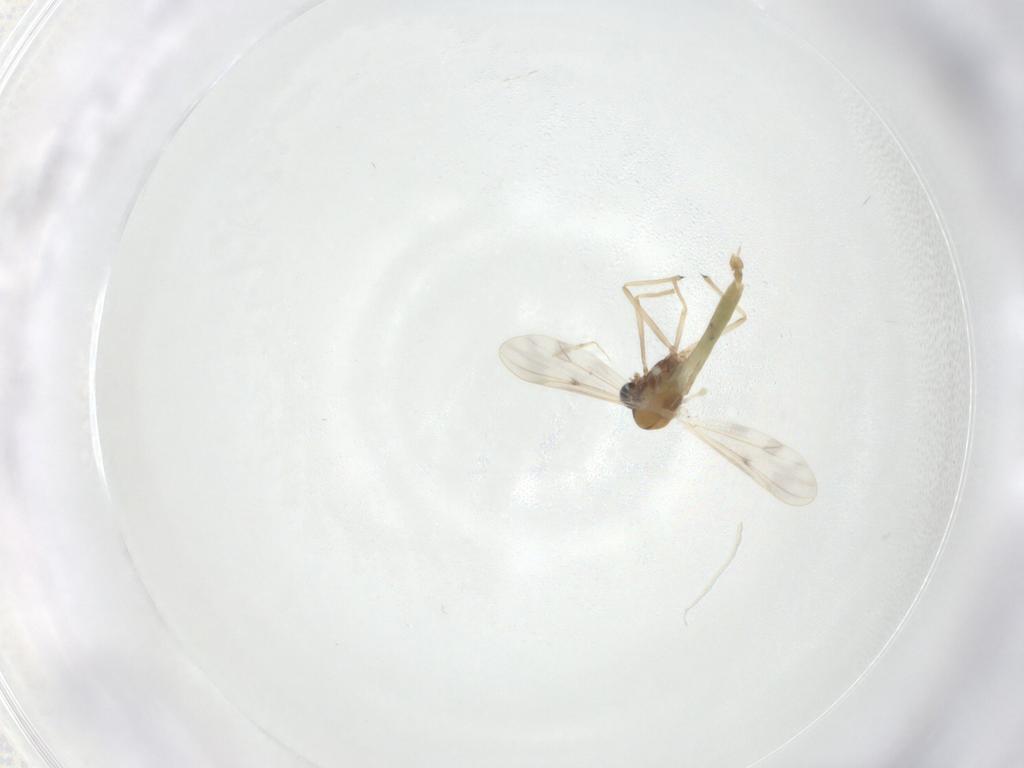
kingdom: Animalia
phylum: Arthropoda
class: Insecta
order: Diptera
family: Chironomidae
